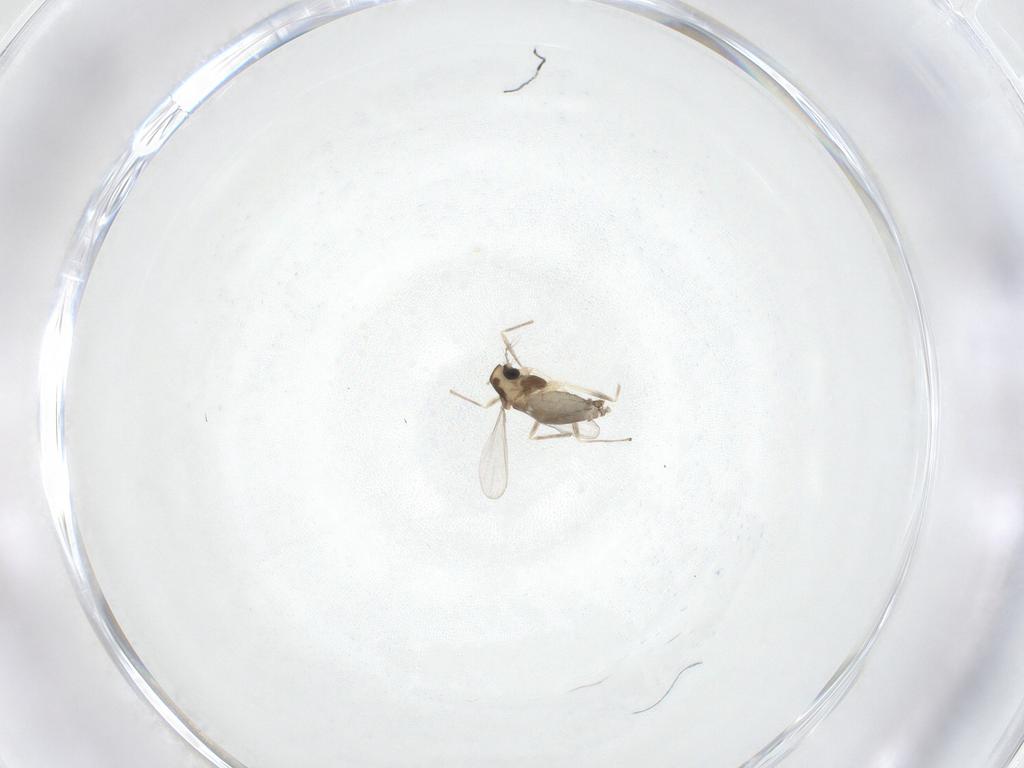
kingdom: Animalia
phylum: Arthropoda
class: Insecta
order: Diptera
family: Chironomidae
